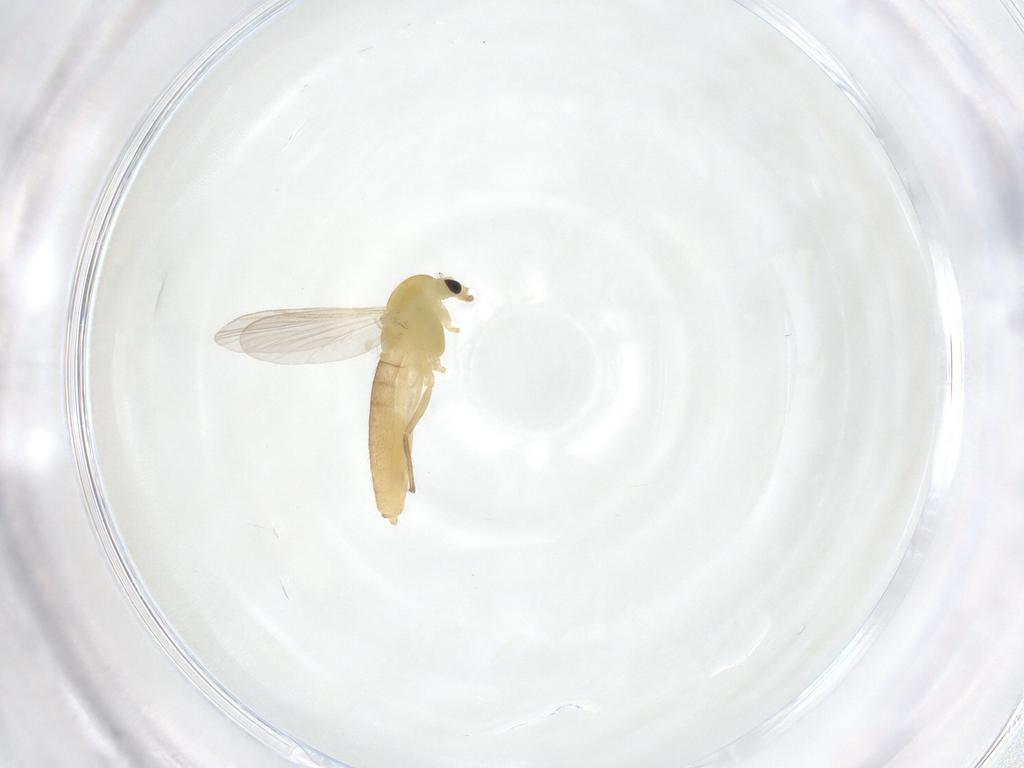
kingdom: Animalia
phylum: Arthropoda
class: Insecta
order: Diptera
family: Chironomidae
